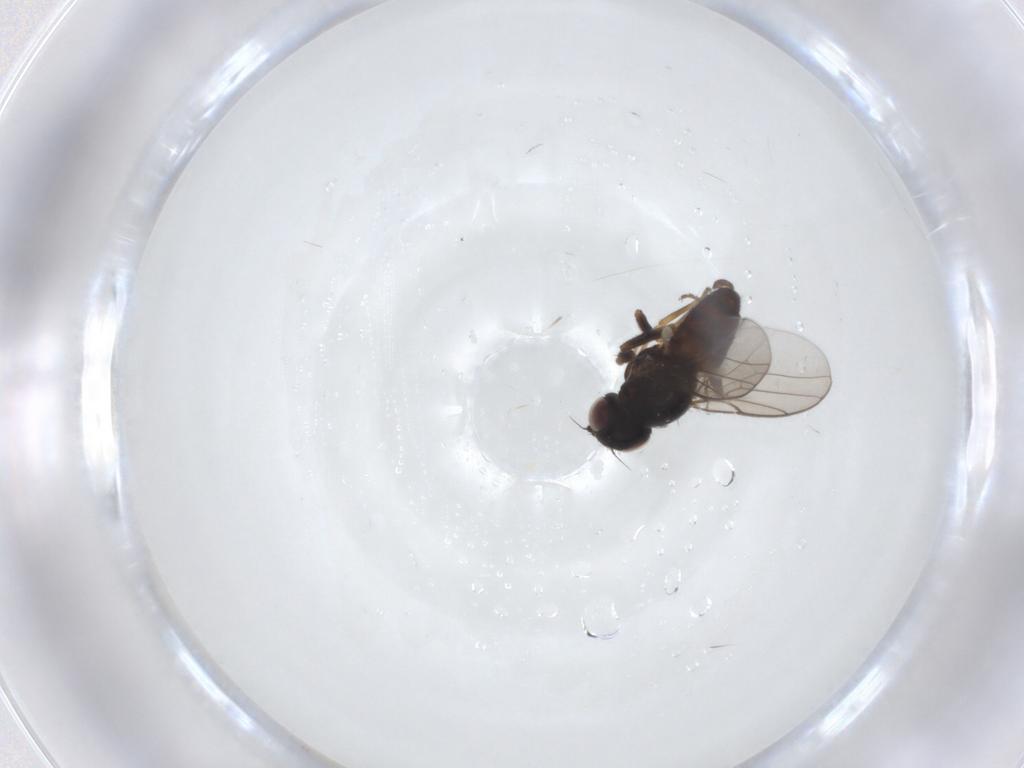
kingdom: Animalia
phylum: Arthropoda
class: Insecta
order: Diptera
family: Chloropidae
